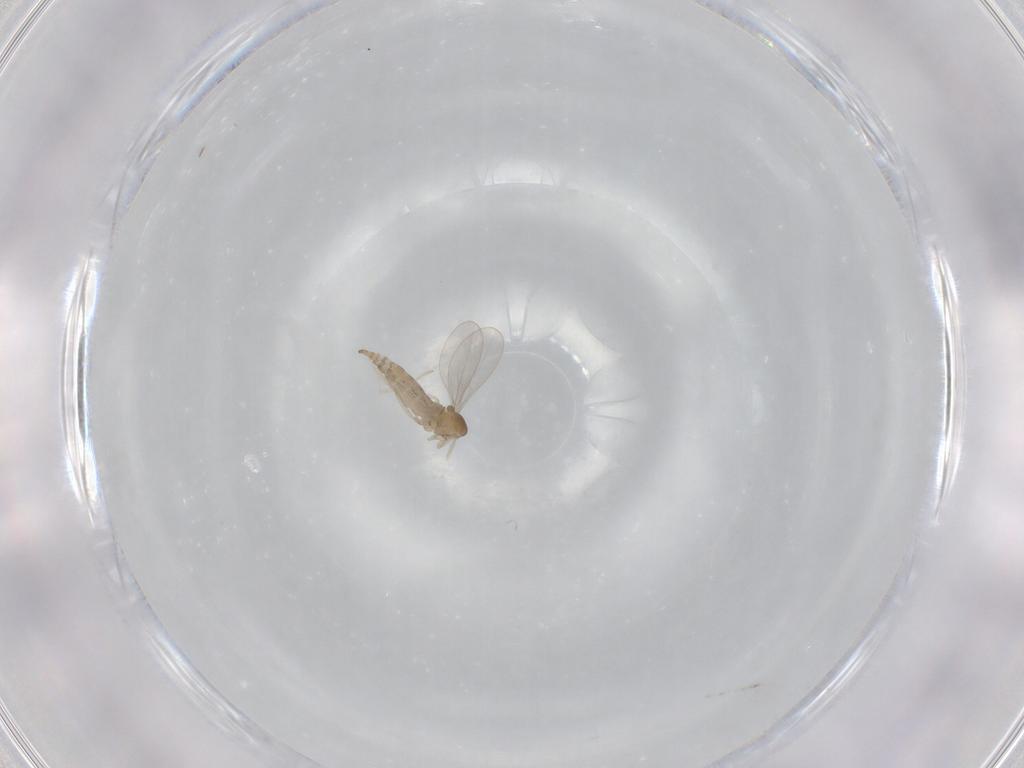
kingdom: Animalia
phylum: Arthropoda
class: Insecta
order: Diptera
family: Cecidomyiidae
